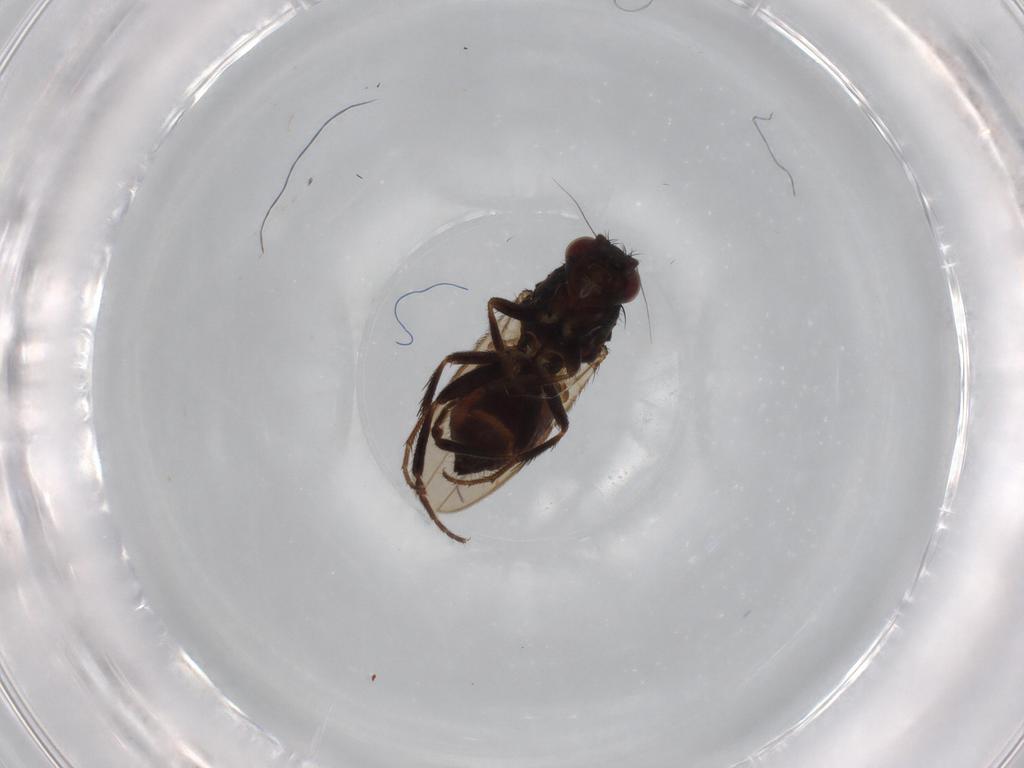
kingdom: Animalia
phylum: Arthropoda
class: Insecta
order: Diptera
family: Sphaeroceridae
